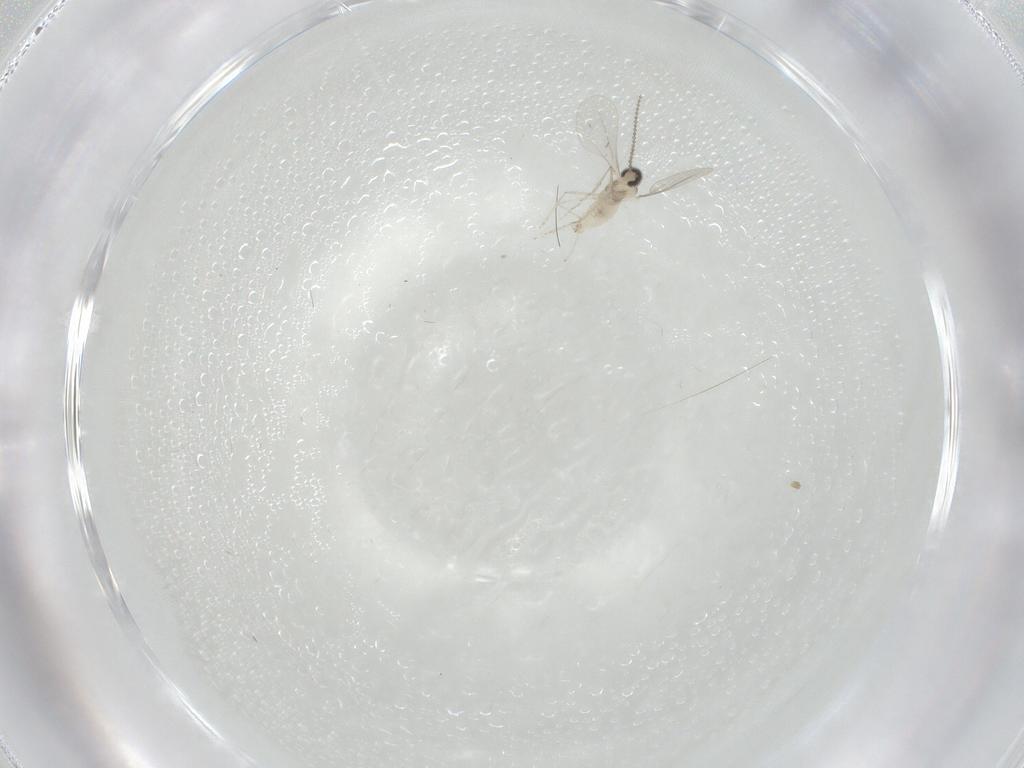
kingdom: Animalia
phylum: Arthropoda
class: Insecta
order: Diptera
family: Limoniidae
